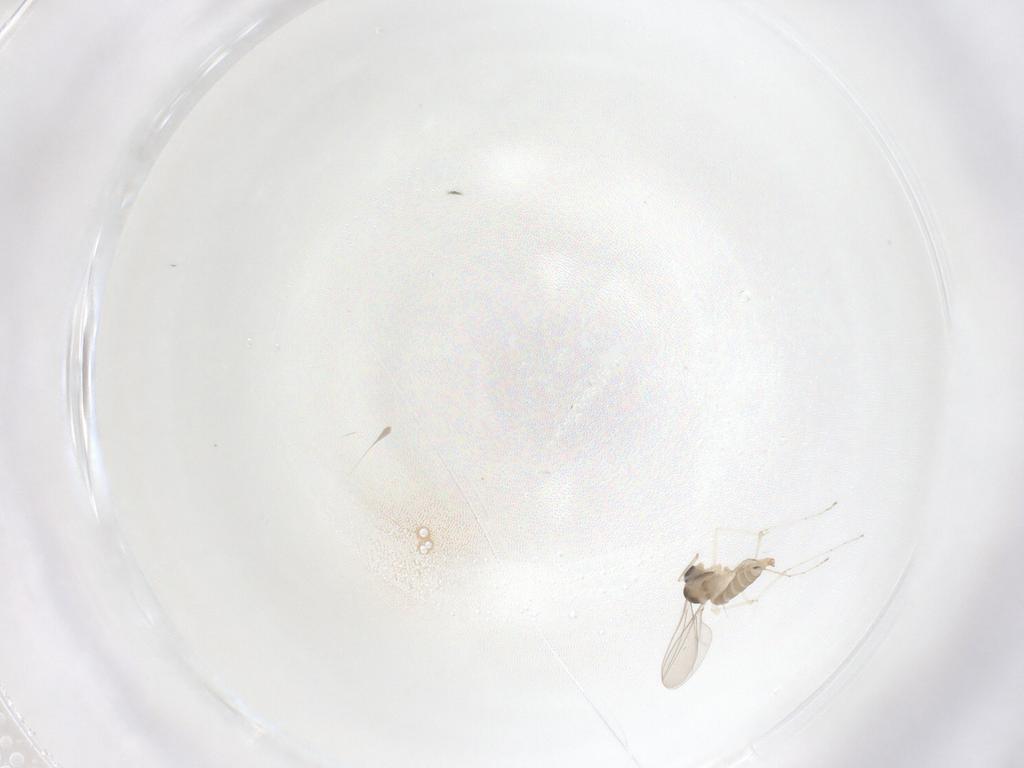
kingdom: Animalia
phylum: Arthropoda
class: Insecta
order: Diptera
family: Cecidomyiidae
